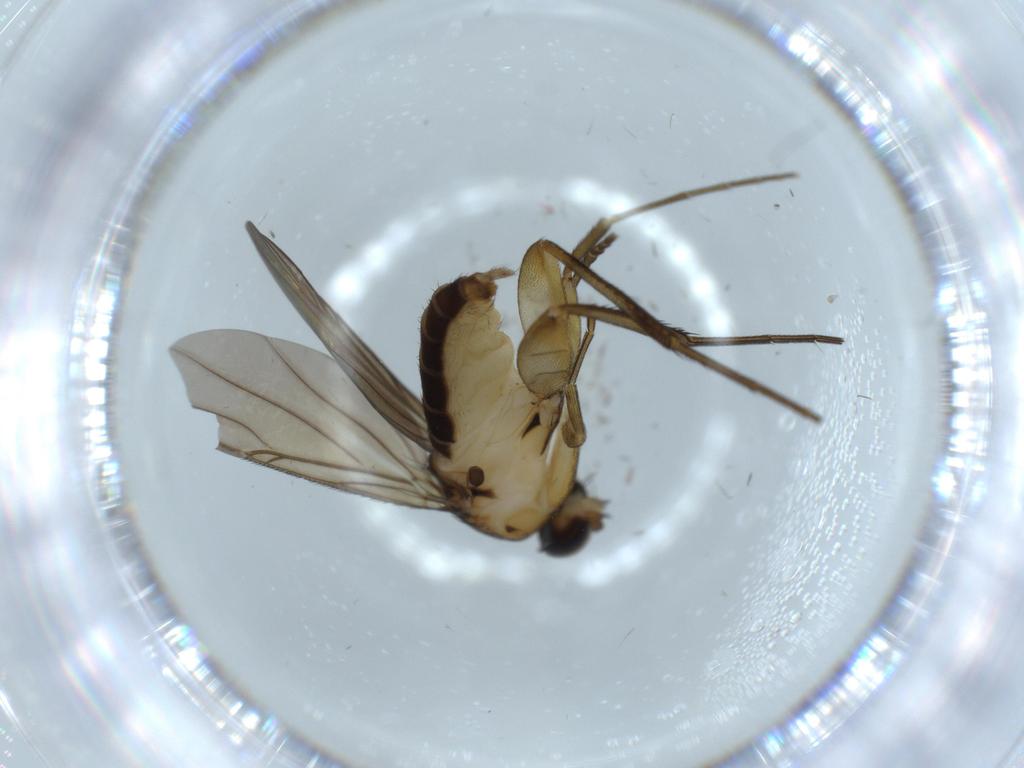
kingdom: Animalia
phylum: Arthropoda
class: Insecta
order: Diptera
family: Phoridae
